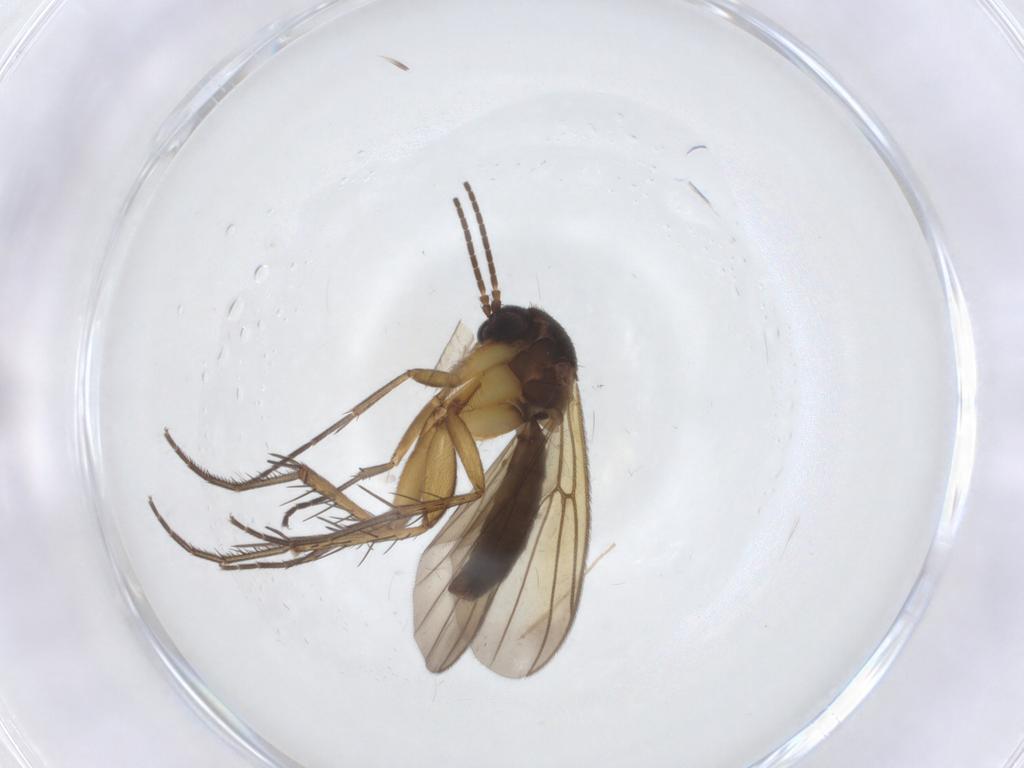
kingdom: Animalia
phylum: Arthropoda
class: Insecta
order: Diptera
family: Mycetophilidae
